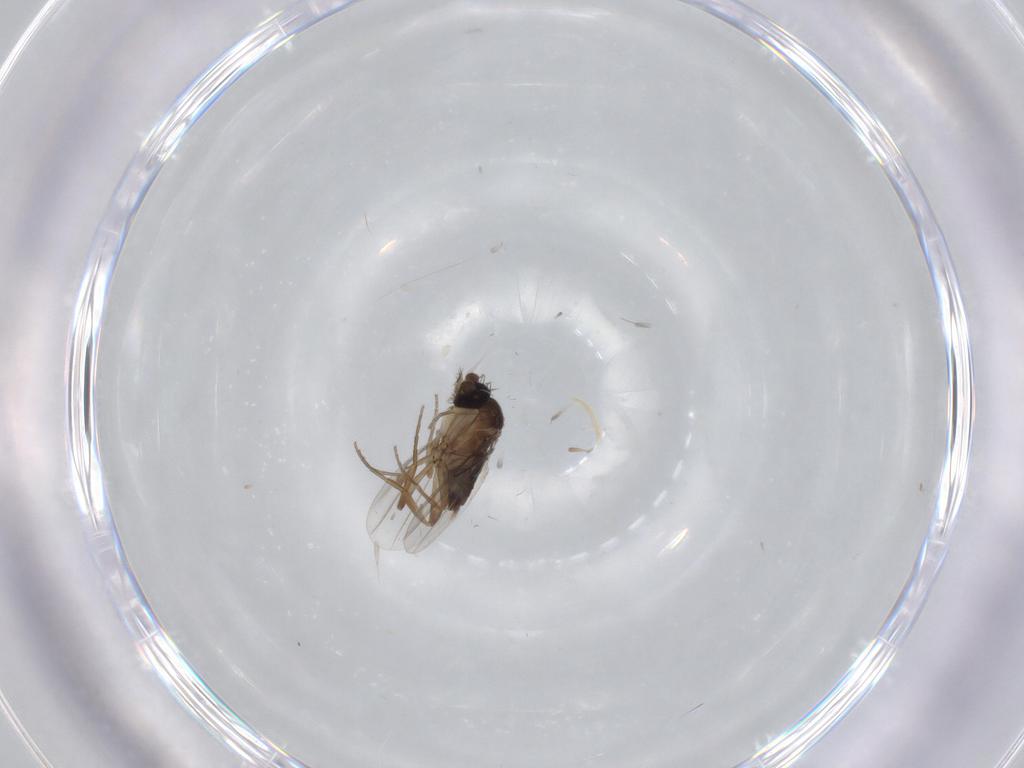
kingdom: Animalia
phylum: Arthropoda
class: Insecta
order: Diptera
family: Phoridae
